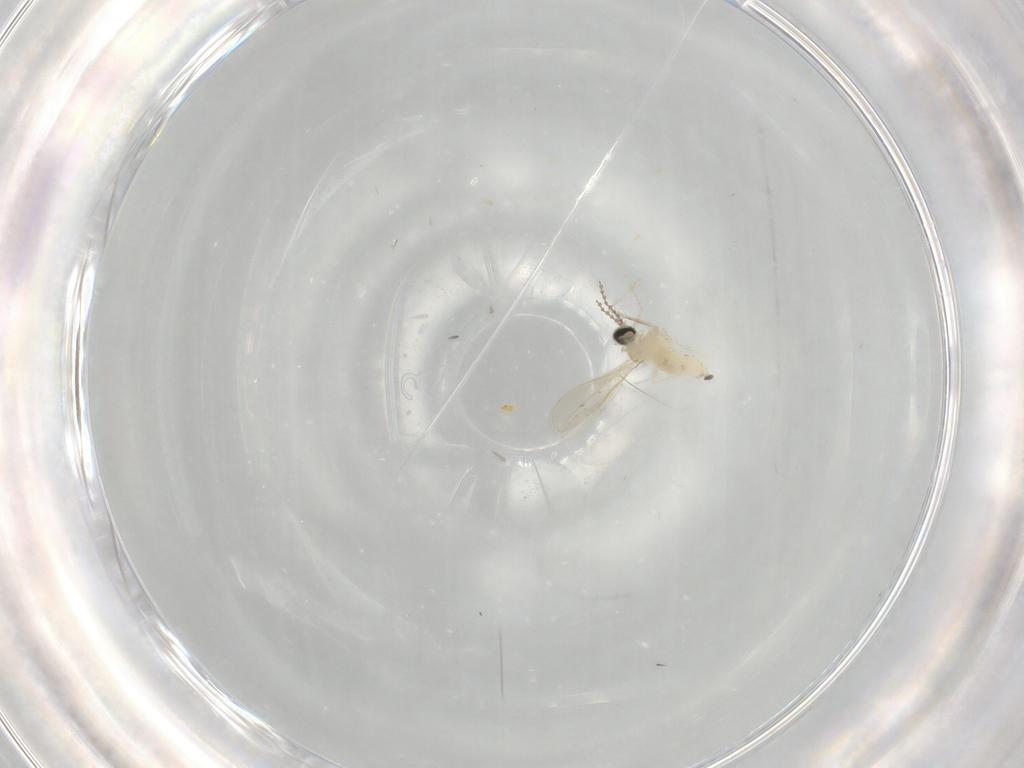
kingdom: Animalia
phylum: Arthropoda
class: Insecta
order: Diptera
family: Cecidomyiidae
